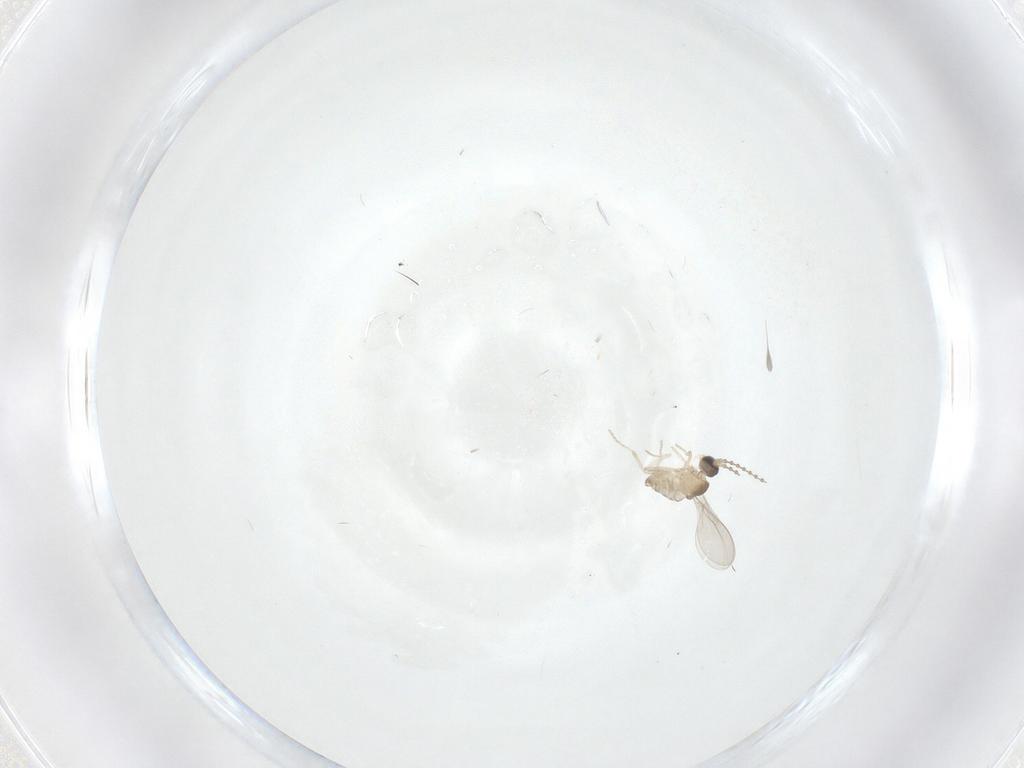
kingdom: Animalia
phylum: Arthropoda
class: Insecta
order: Diptera
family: Cecidomyiidae
